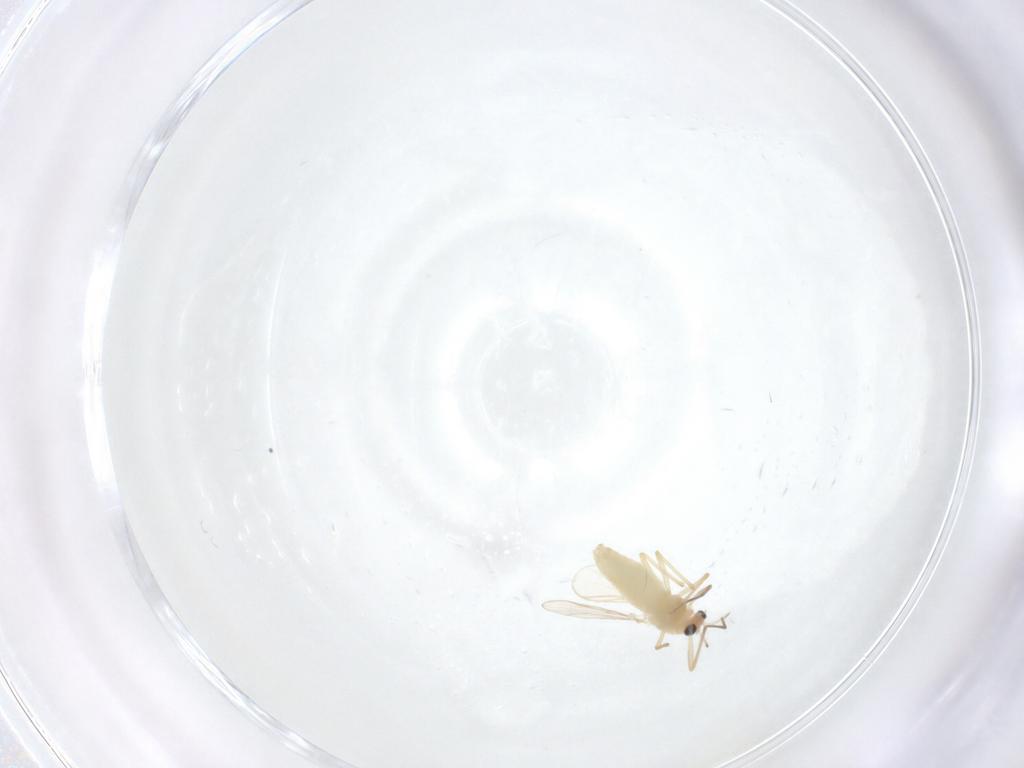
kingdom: Animalia
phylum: Arthropoda
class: Insecta
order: Diptera
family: Chironomidae
